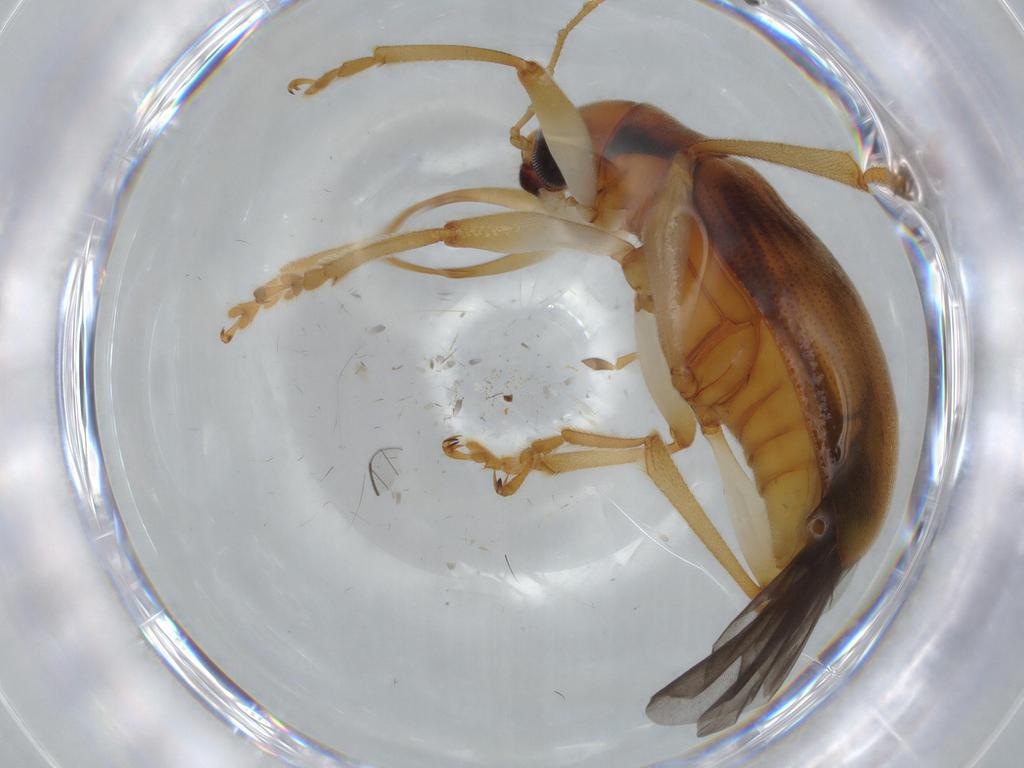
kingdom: Animalia
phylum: Arthropoda
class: Insecta
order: Coleoptera
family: Chrysomelidae
